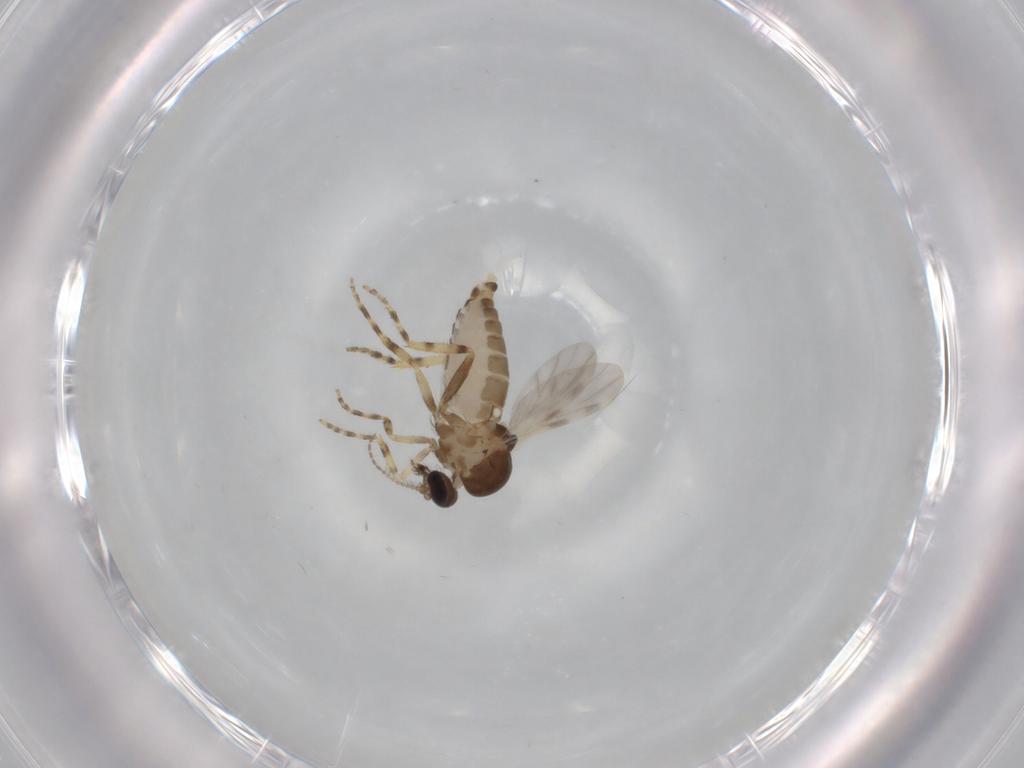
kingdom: Animalia
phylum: Arthropoda
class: Insecta
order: Diptera
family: Ceratopogonidae
